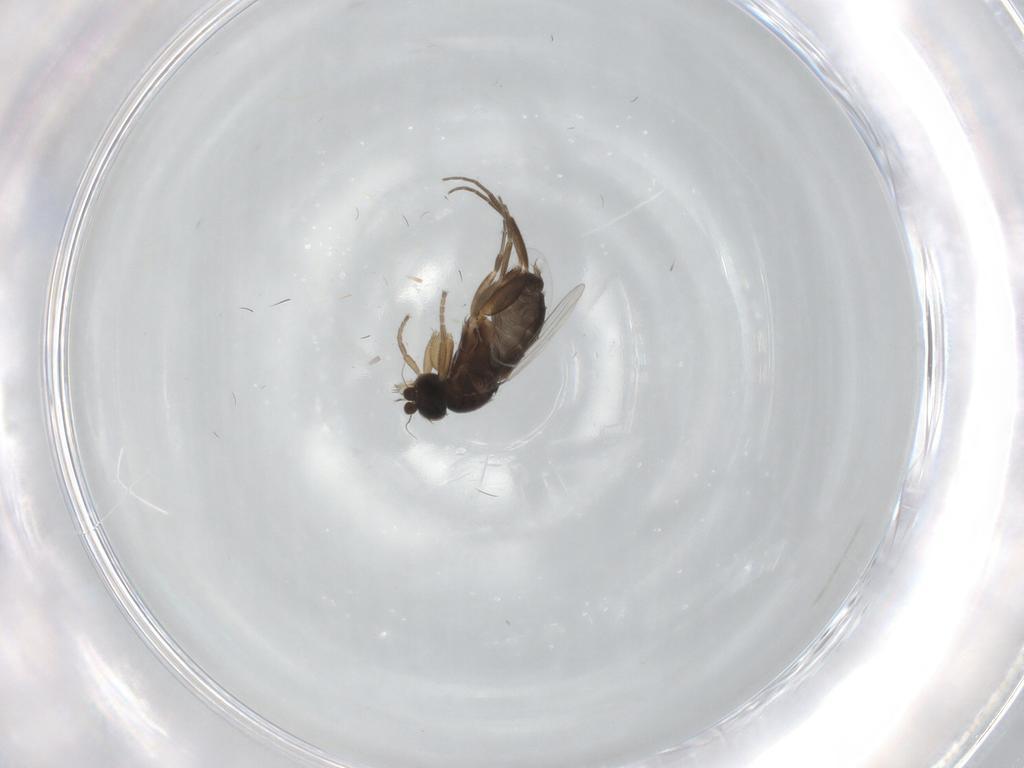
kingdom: Animalia
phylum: Arthropoda
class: Insecta
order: Diptera
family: Phoridae
